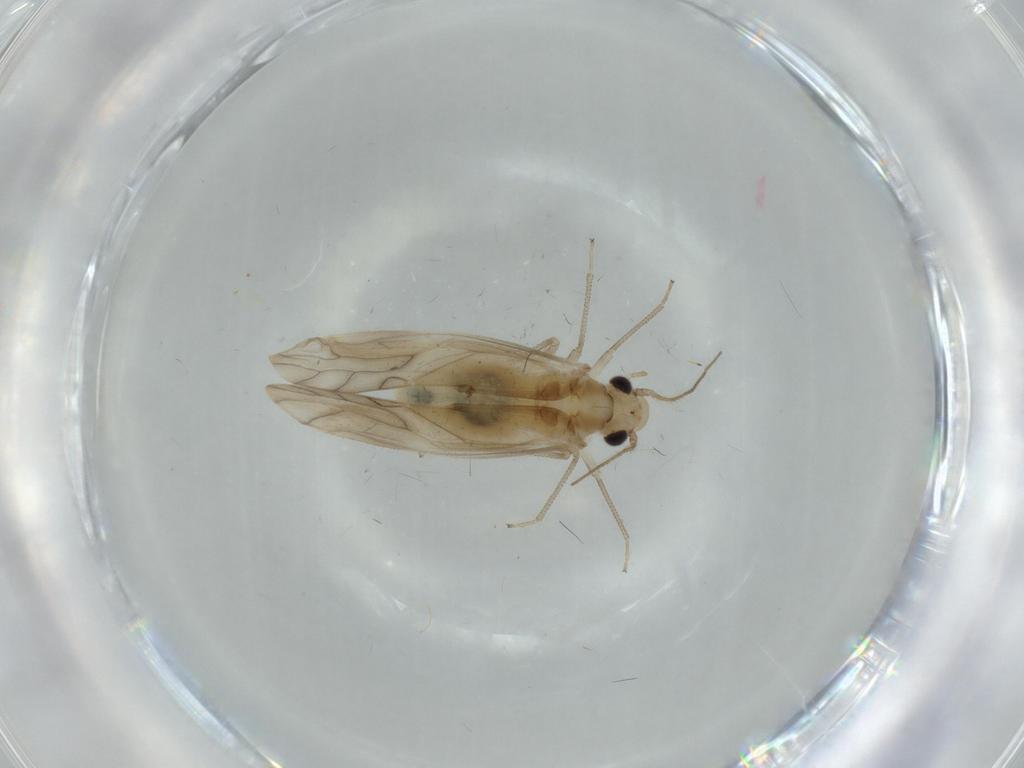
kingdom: Animalia
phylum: Arthropoda
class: Insecta
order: Psocodea
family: Caeciliusidae
